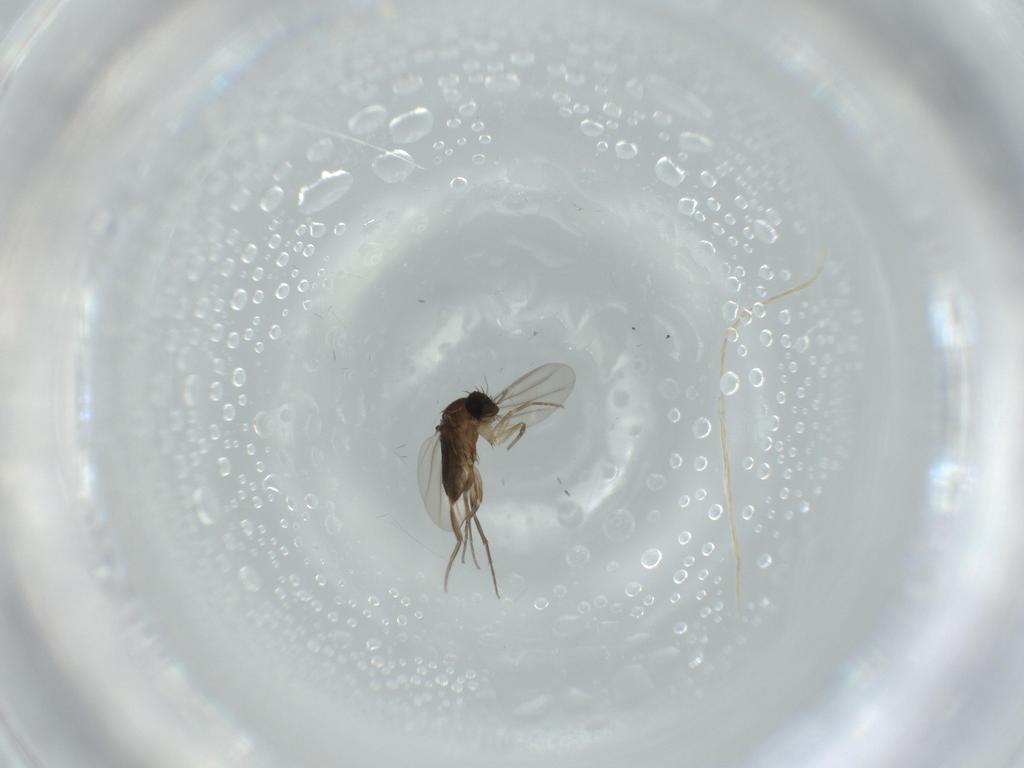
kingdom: Animalia
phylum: Arthropoda
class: Insecta
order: Diptera
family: Phoridae
